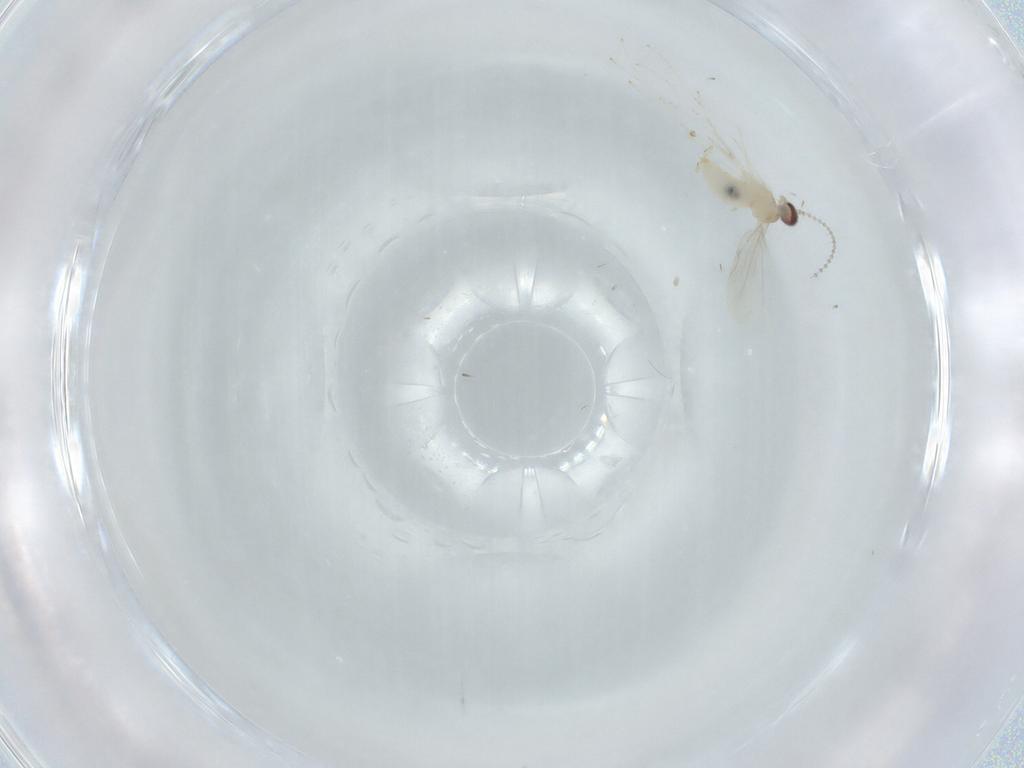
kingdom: Animalia
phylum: Arthropoda
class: Insecta
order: Diptera
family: Cecidomyiidae
